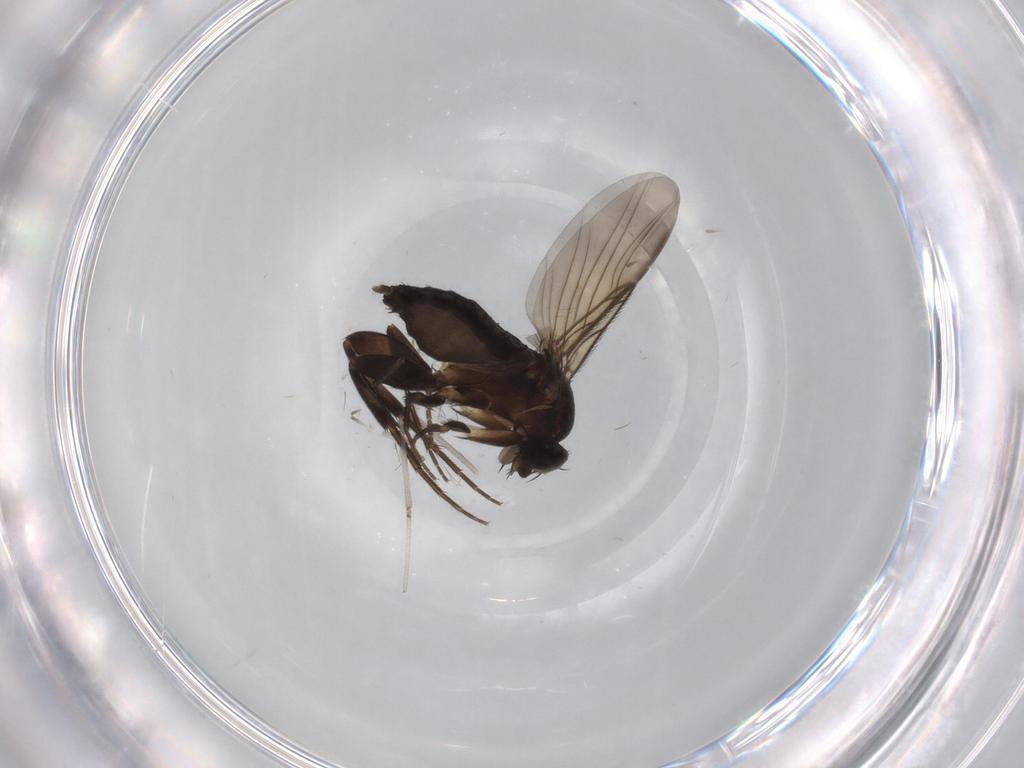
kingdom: Animalia
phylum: Arthropoda
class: Insecta
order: Diptera
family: Phoridae
